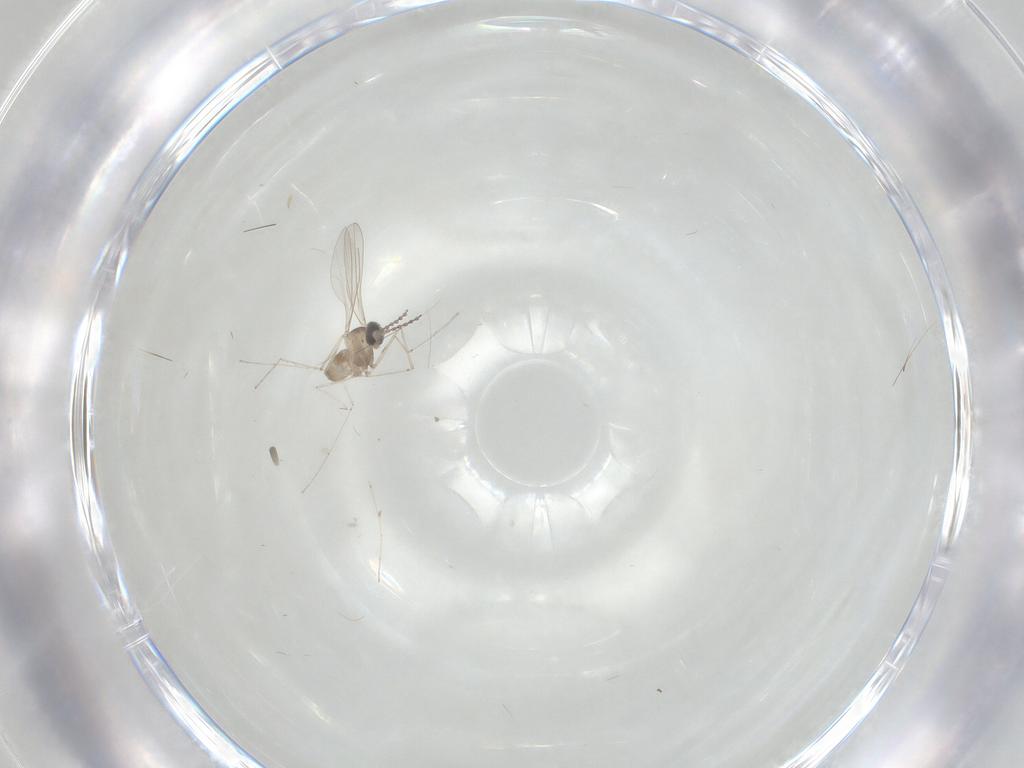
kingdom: Animalia
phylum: Arthropoda
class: Insecta
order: Diptera
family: Cecidomyiidae
